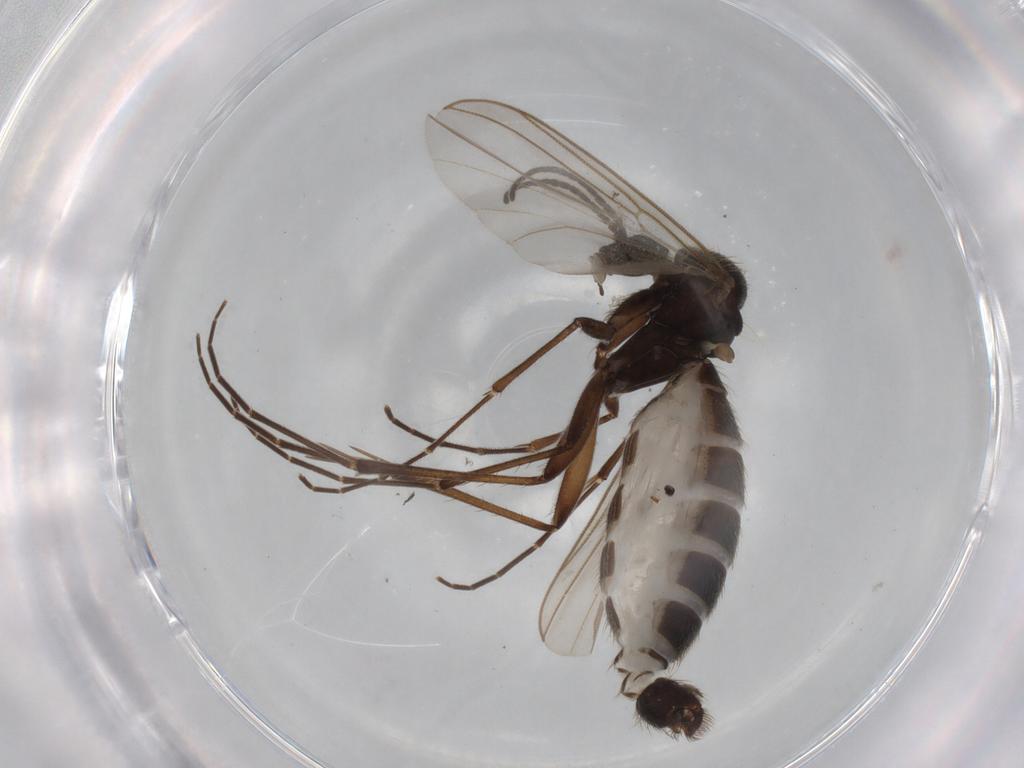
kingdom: Animalia
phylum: Arthropoda
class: Insecta
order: Diptera
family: Mycetophilidae
